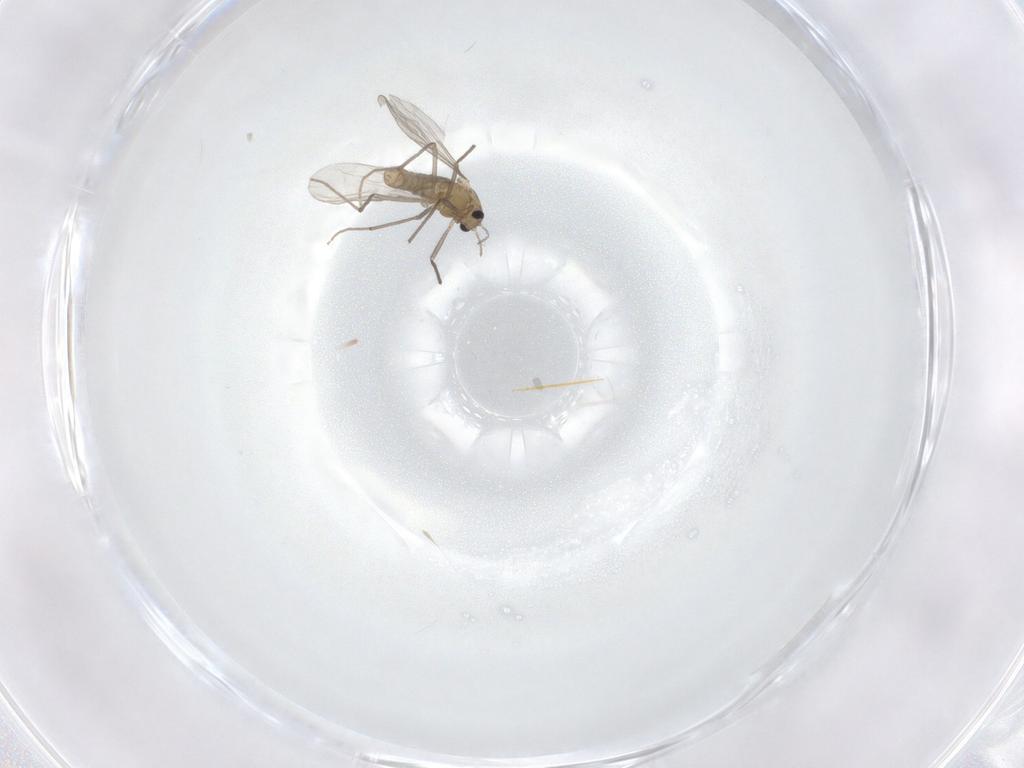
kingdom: Animalia
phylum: Arthropoda
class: Insecta
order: Diptera
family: Chironomidae
